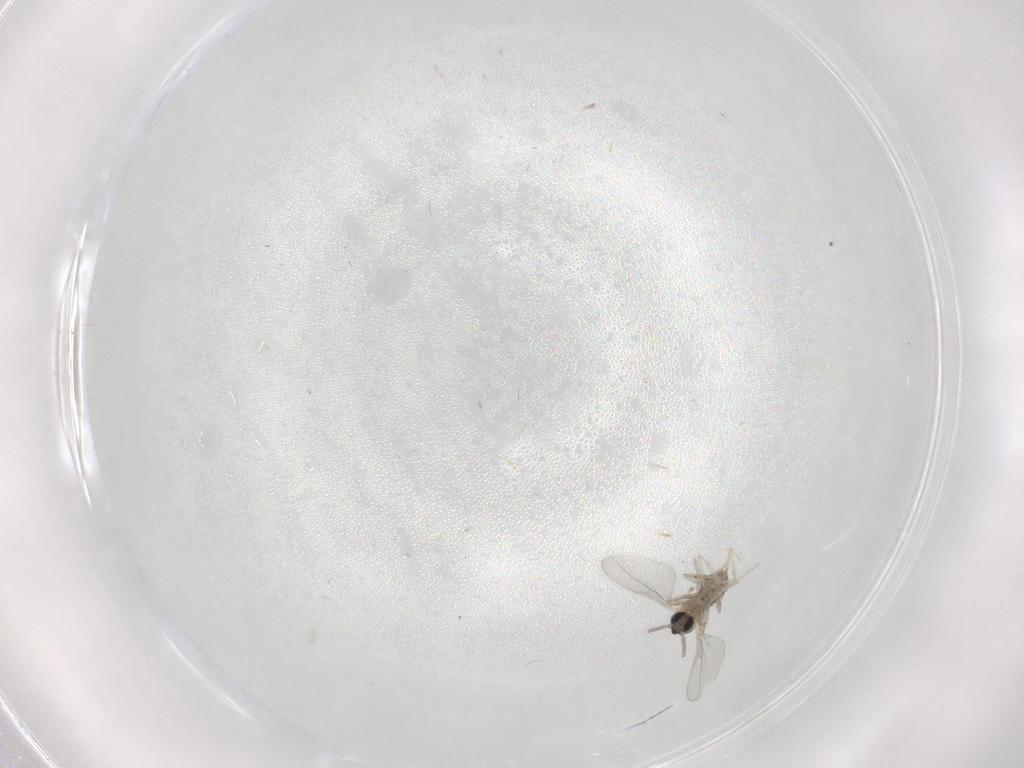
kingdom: Animalia
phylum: Arthropoda
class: Insecta
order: Diptera
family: Cecidomyiidae
